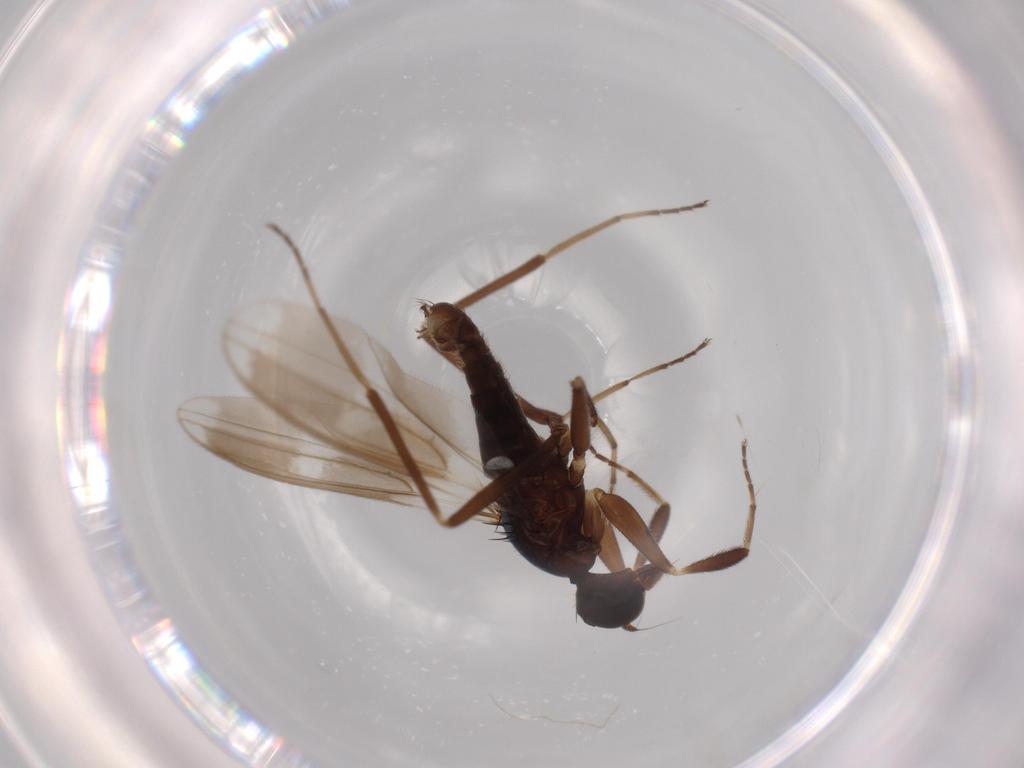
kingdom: Animalia
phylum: Arthropoda
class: Insecta
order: Diptera
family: Hybotidae
